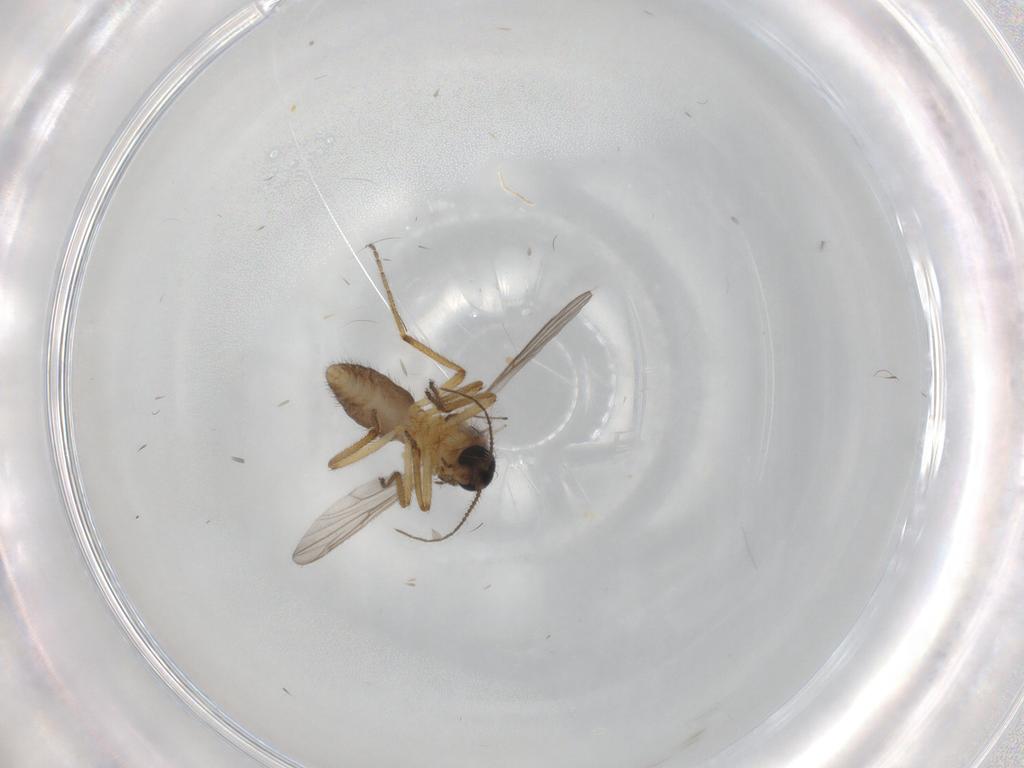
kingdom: Animalia
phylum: Arthropoda
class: Insecta
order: Diptera
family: Ceratopogonidae
